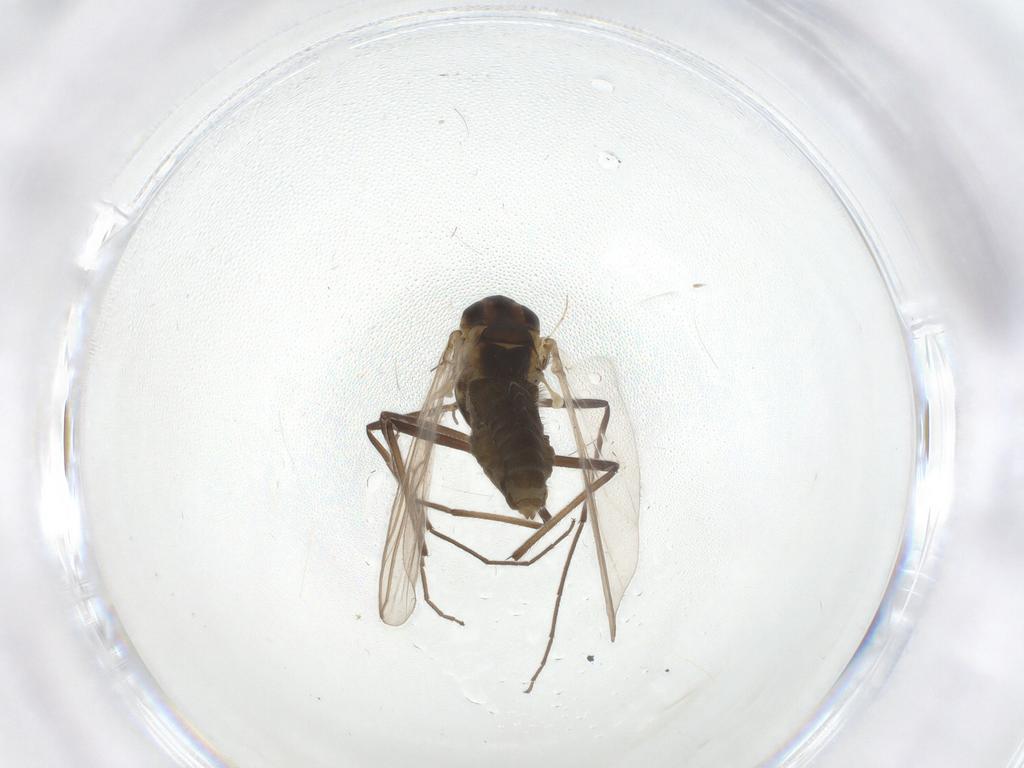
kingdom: Animalia
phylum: Arthropoda
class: Insecta
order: Diptera
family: Chironomidae
